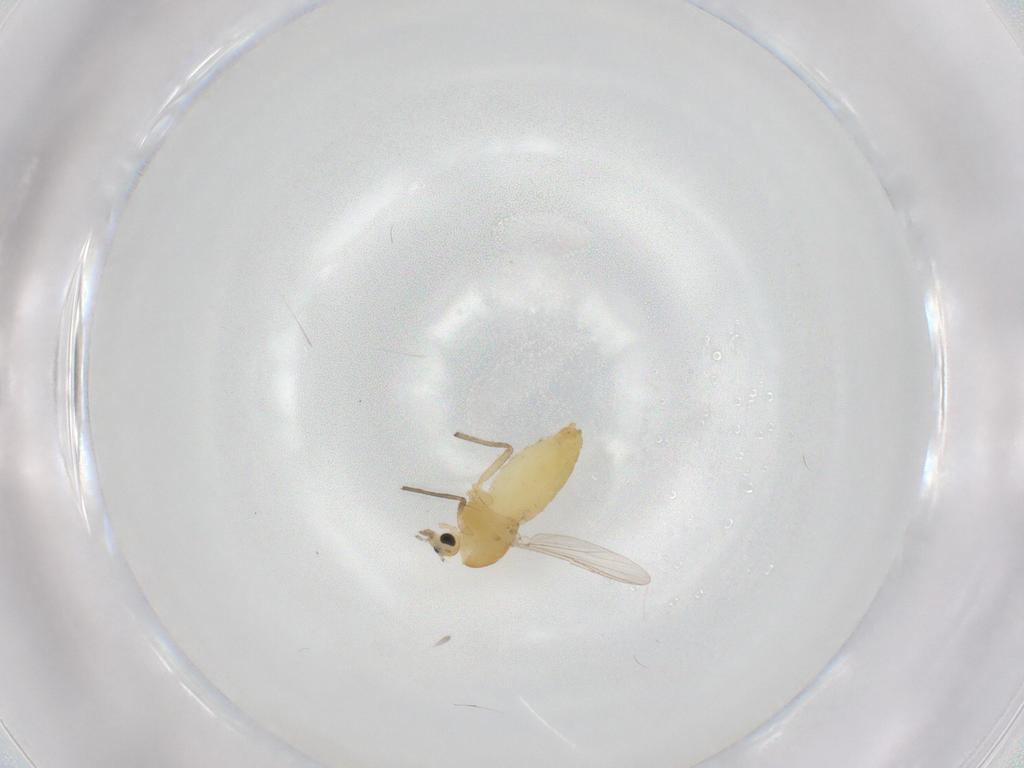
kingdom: Animalia
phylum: Arthropoda
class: Insecta
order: Diptera
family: Chironomidae
